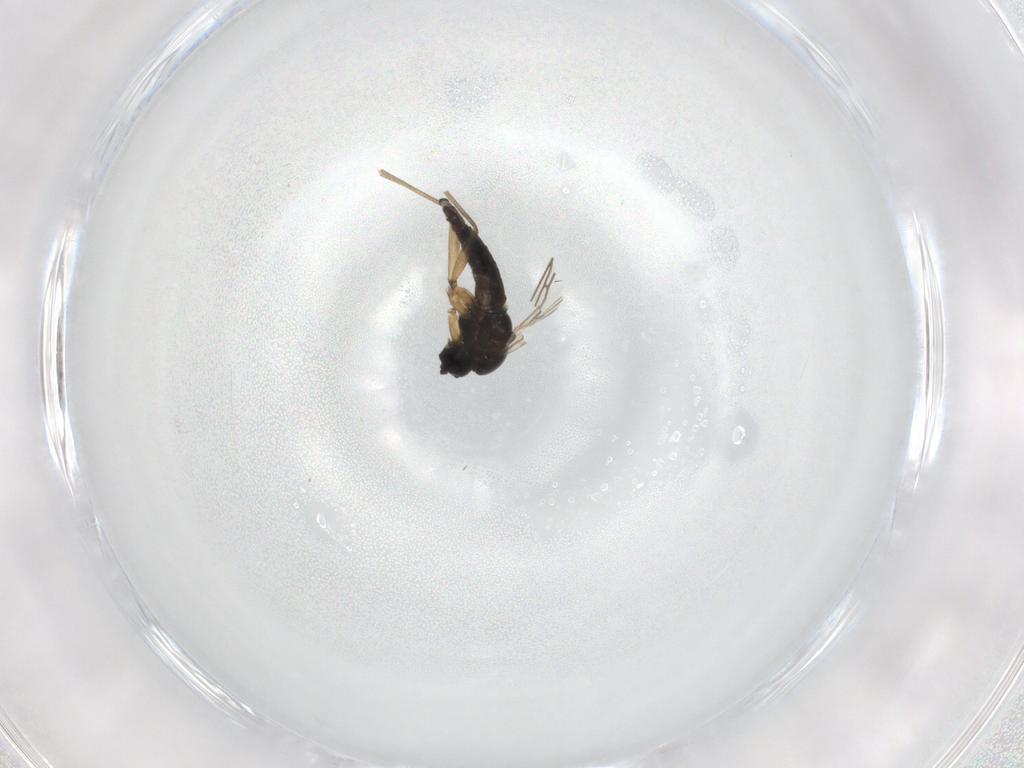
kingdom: Animalia
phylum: Arthropoda
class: Insecta
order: Diptera
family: Sciaridae
